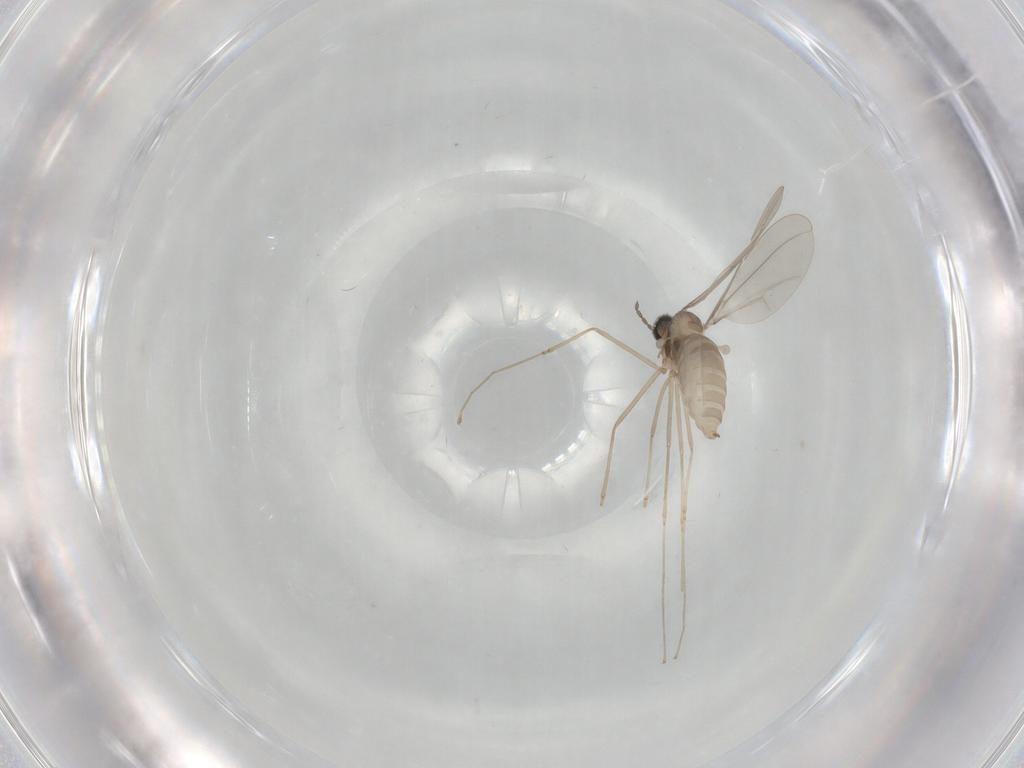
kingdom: Animalia
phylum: Arthropoda
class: Insecta
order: Diptera
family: Cecidomyiidae
